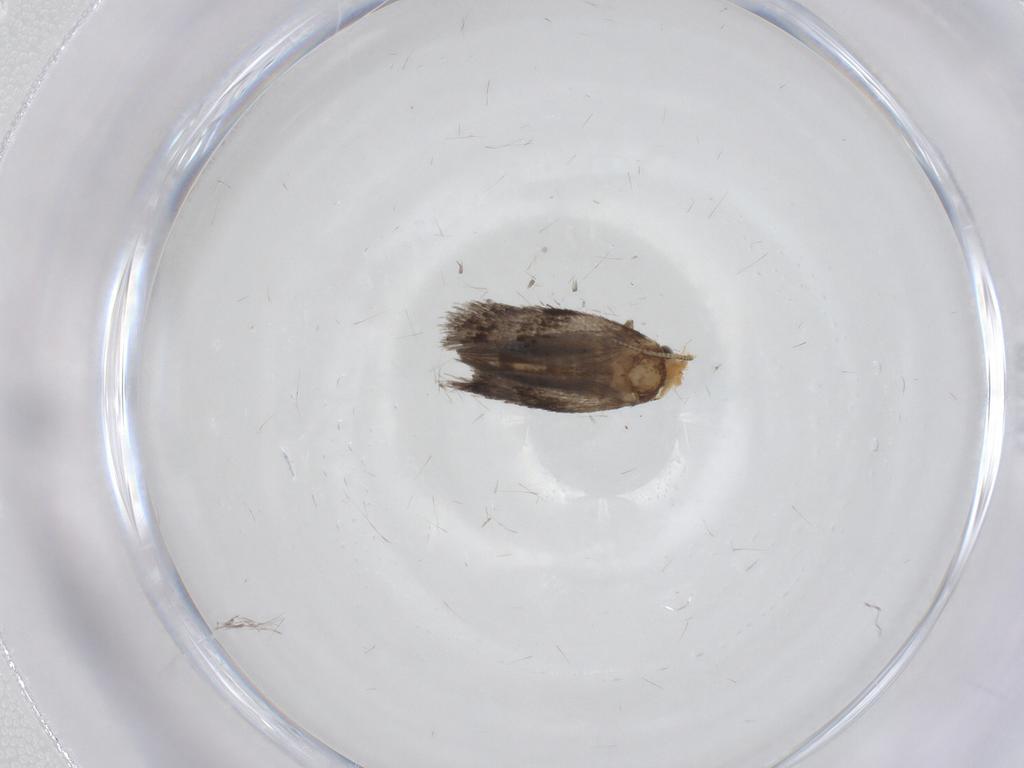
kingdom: Animalia
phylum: Arthropoda
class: Insecta
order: Lepidoptera
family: Nepticulidae
